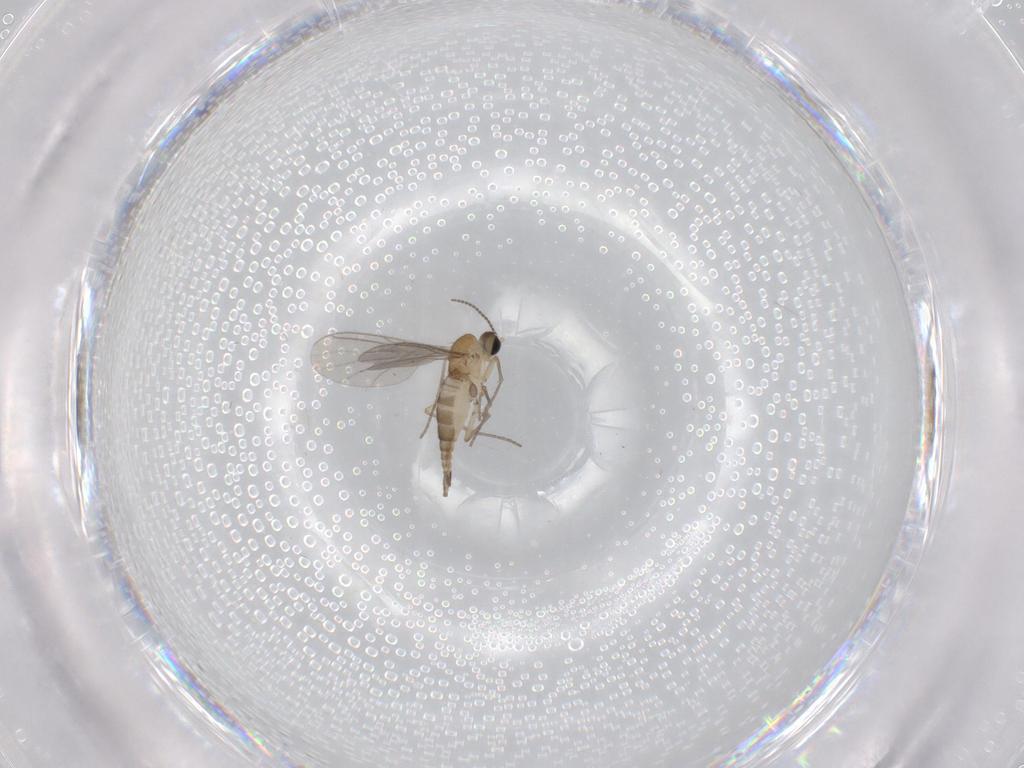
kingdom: Animalia
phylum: Arthropoda
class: Insecta
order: Diptera
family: Sciaridae
